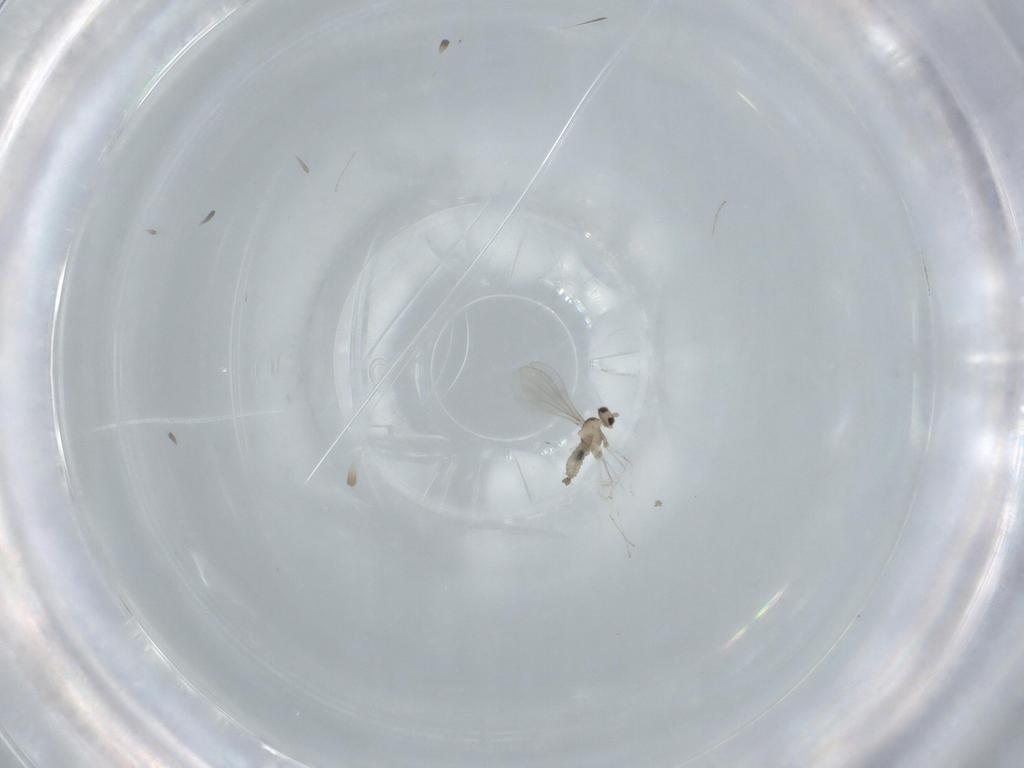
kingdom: Animalia
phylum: Arthropoda
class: Insecta
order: Diptera
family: Cecidomyiidae
